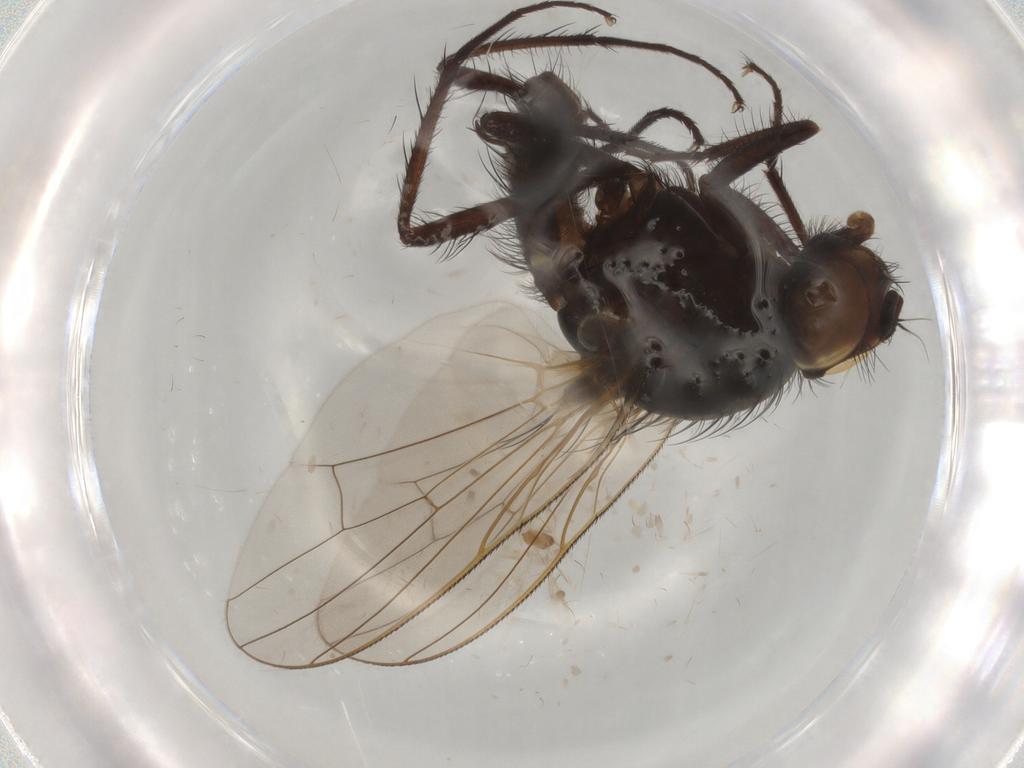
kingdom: Animalia
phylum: Arthropoda
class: Insecta
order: Diptera
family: Anthomyiidae
